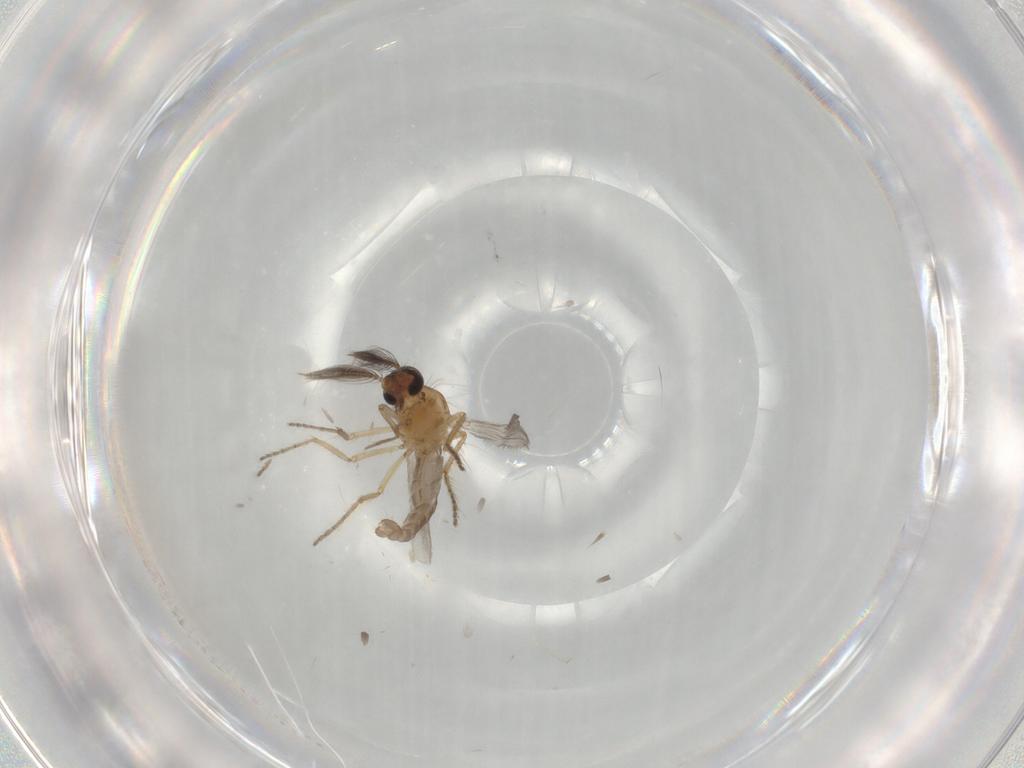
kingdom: Animalia
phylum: Arthropoda
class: Insecta
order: Diptera
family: Ceratopogonidae
